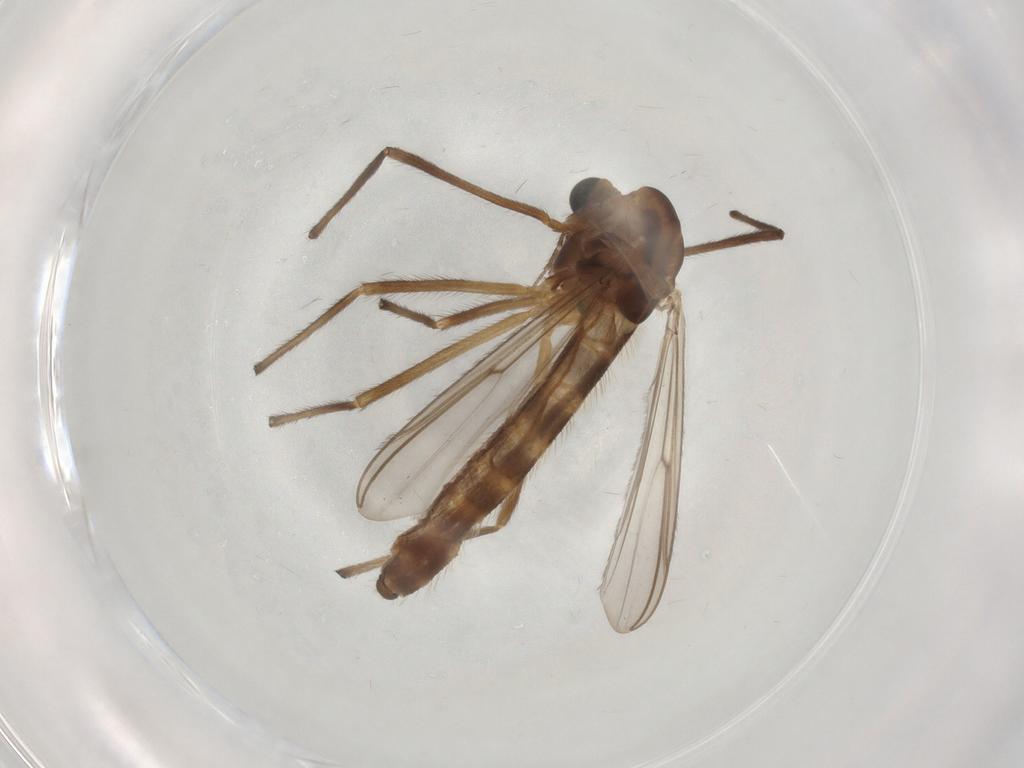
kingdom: Animalia
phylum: Arthropoda
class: Insecta
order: Diptera
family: Chironomidae
